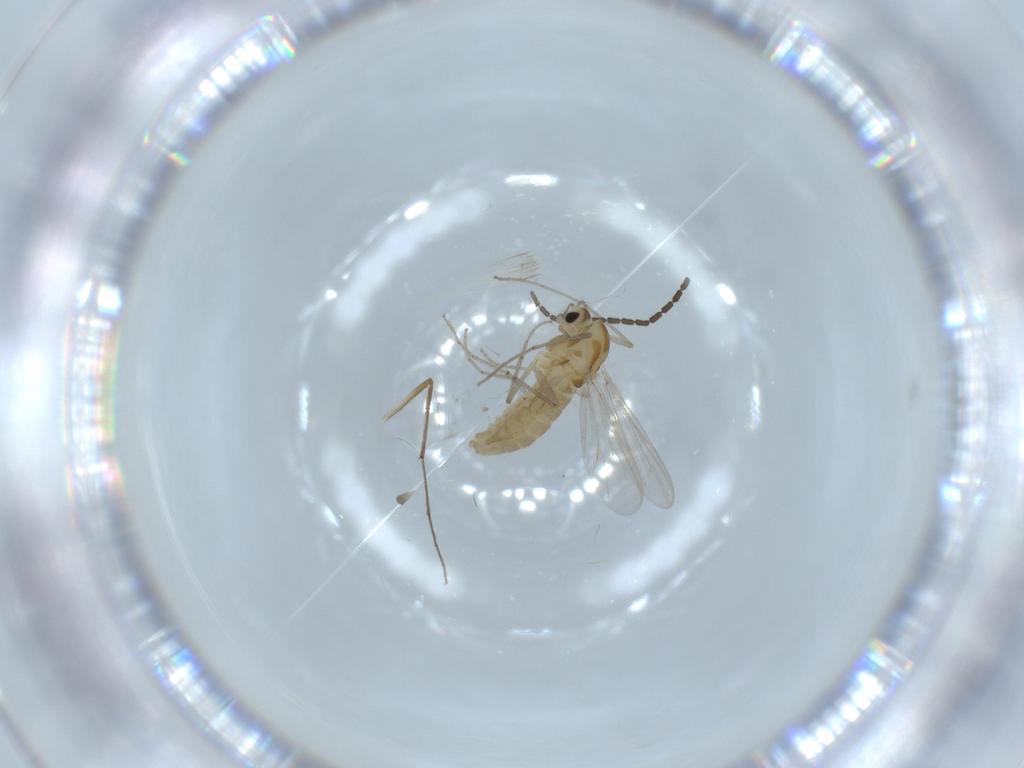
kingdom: Animalia
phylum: Arthropoda
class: Insecta
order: Diptera
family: Chironomidae
